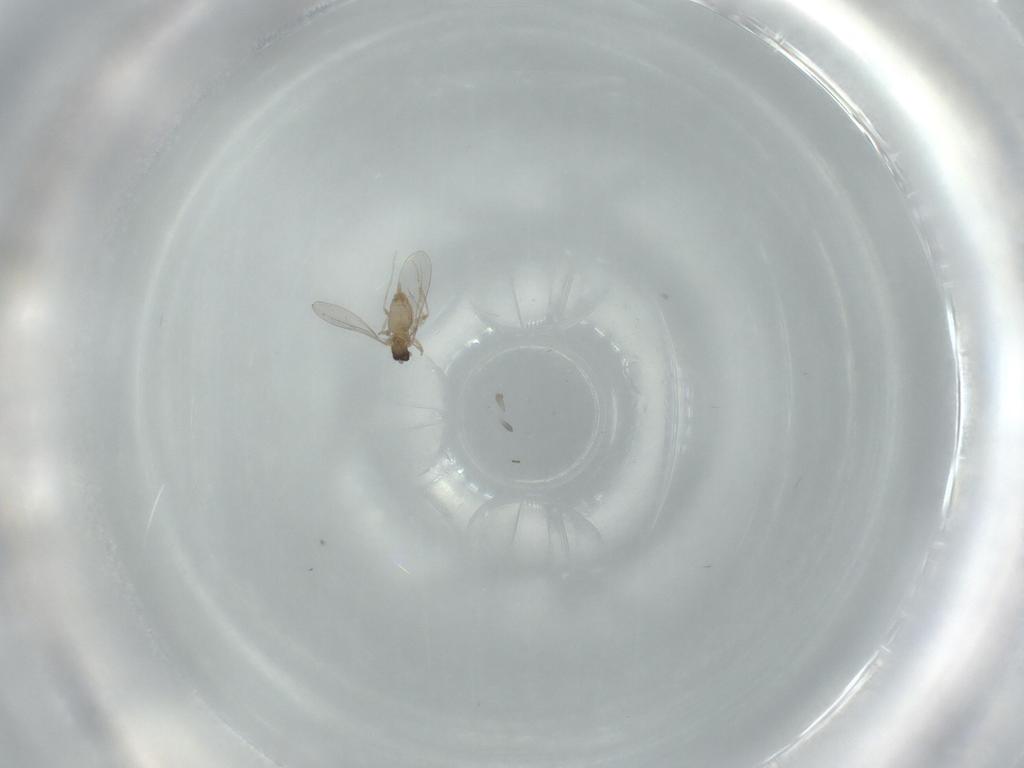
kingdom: Animalia
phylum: Arthropoda
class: Insecta
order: Diptera
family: Cecidomyiidae
